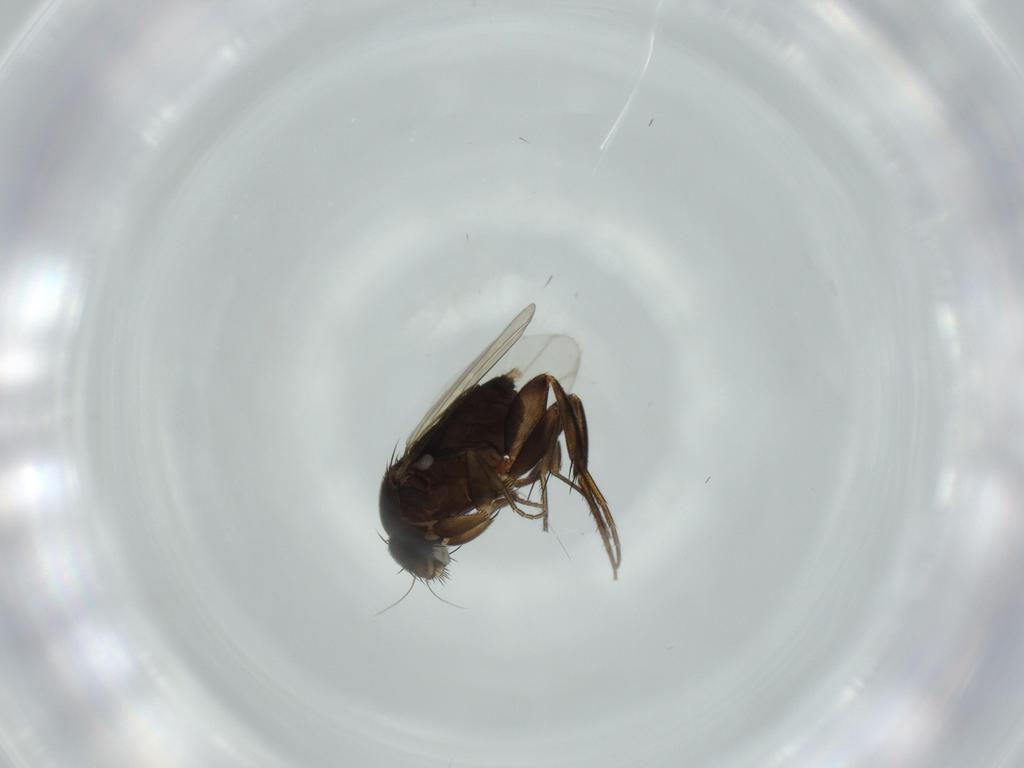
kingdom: Animalia
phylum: Arthropoda
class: Insecta
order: Diptera
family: Phoridae
